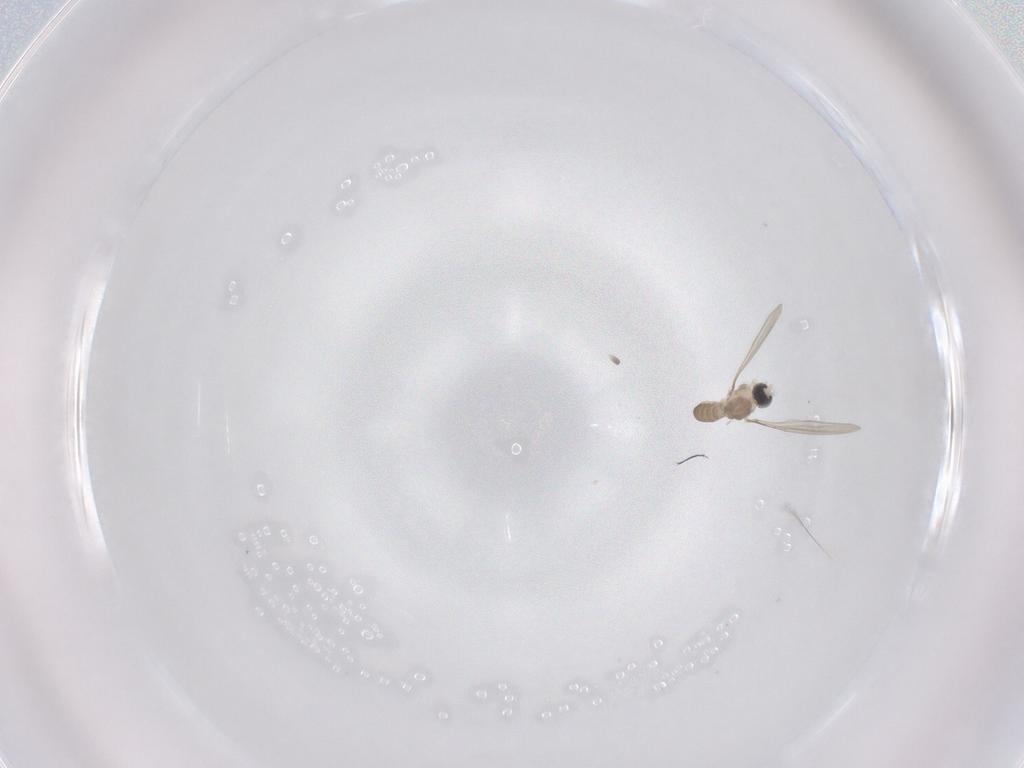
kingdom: Animalia
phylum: Arthropoda
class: Insecta
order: Diptera
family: Cecidomyiidae
